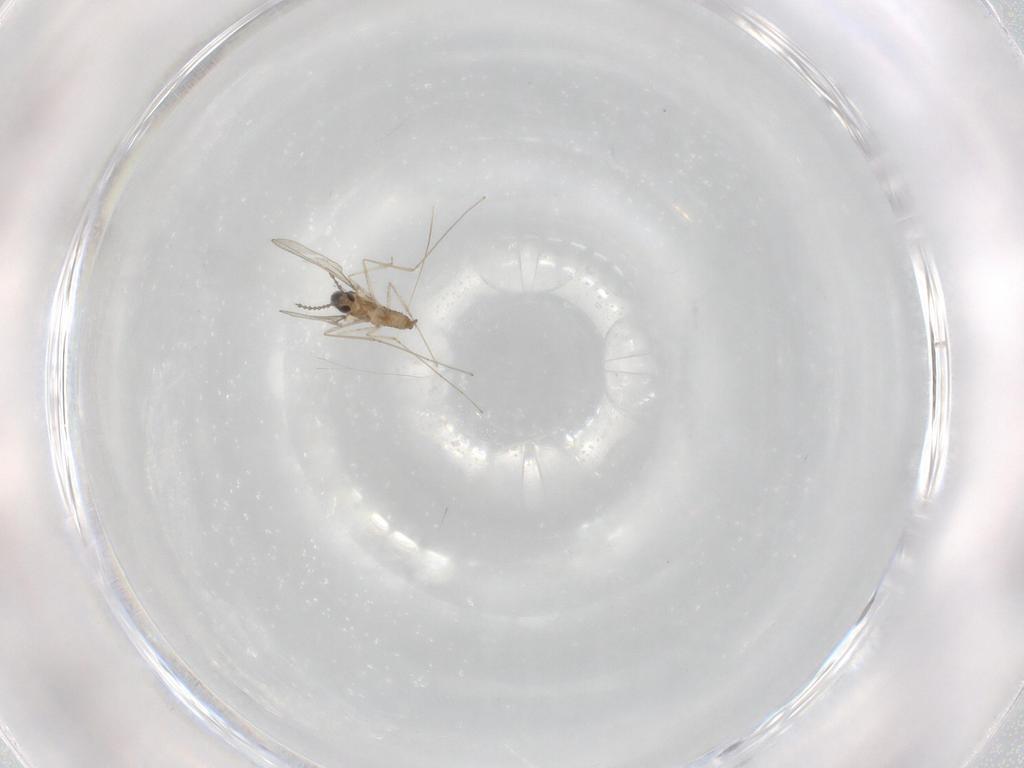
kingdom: Animalia
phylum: Arthropoda
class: Insecta
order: Diptera
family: Cecidomyiidae
